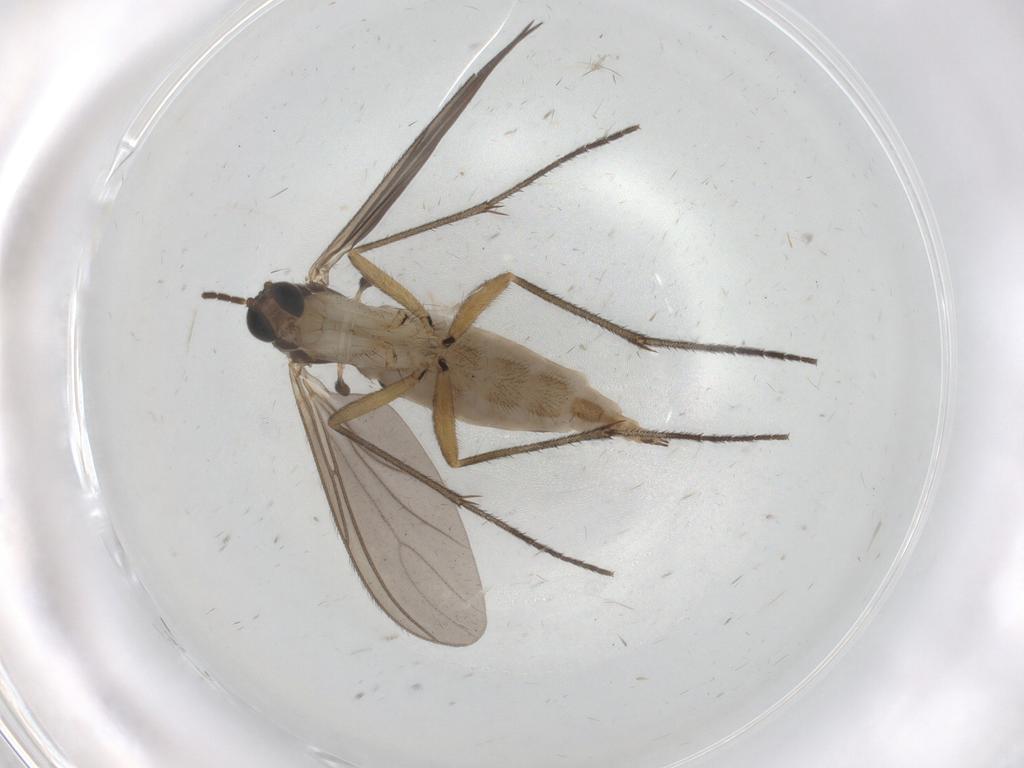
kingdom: Animalia
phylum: Arthropoda
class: Insecta
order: Diptera
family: Sciaridae
